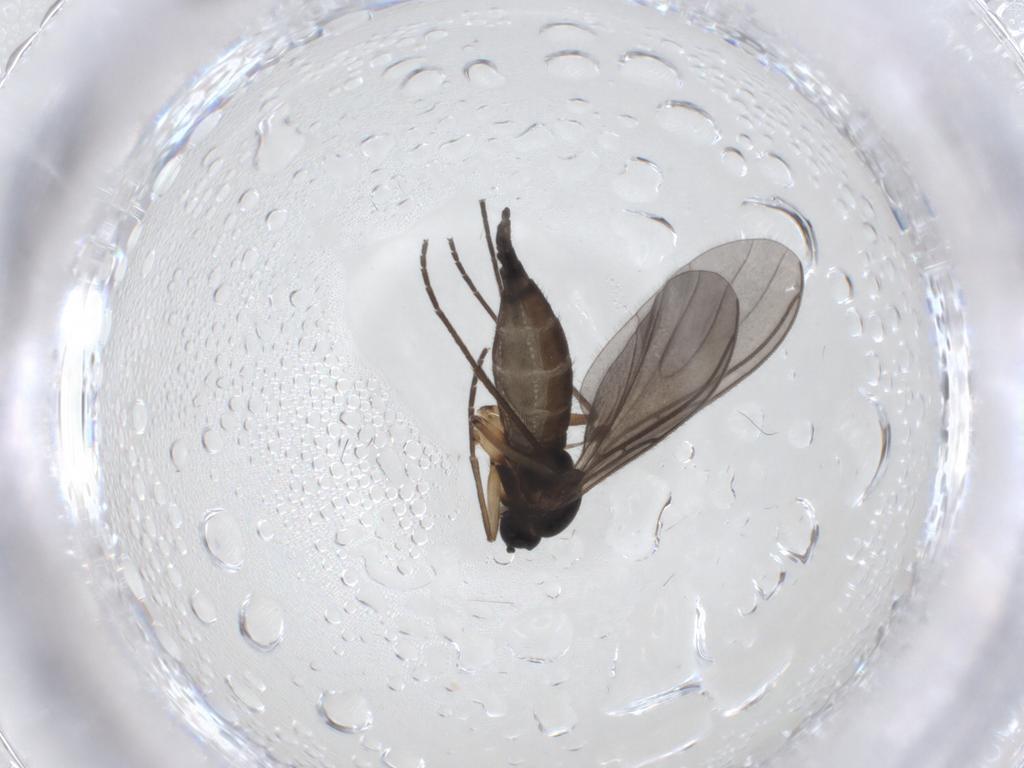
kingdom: Animalia
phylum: Arthropoda
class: Insecta
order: Diptera
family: Sciaridae
